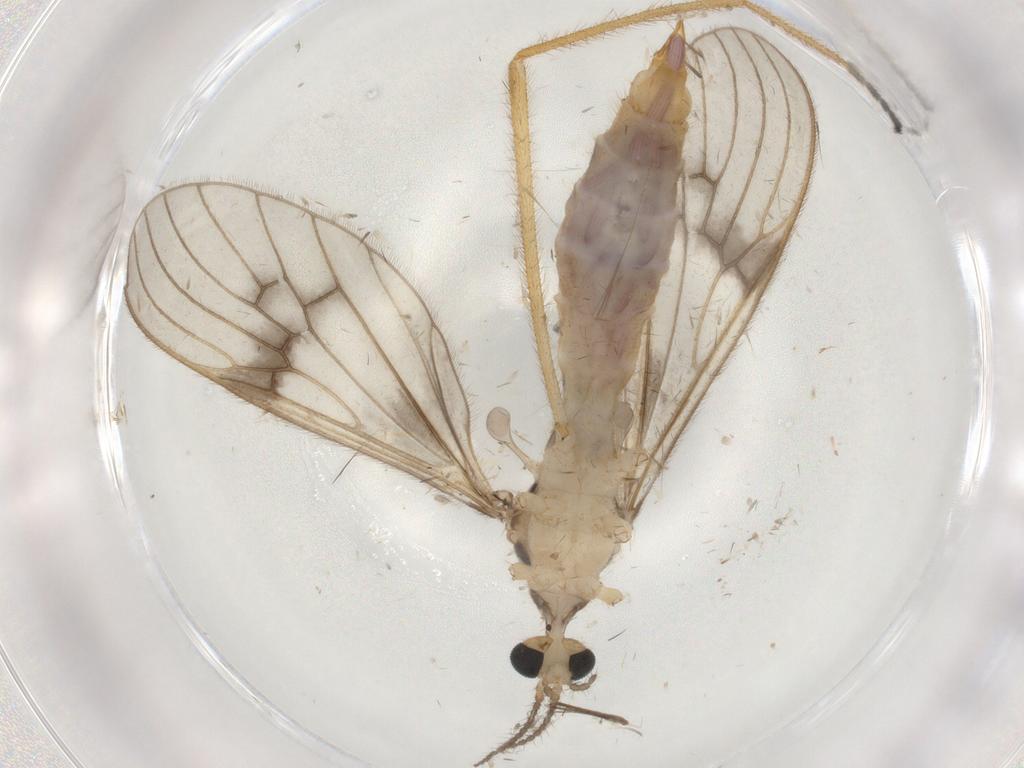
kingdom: Animalia
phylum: Arthropoda
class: Insecta
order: Diptera
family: Limoniidae
